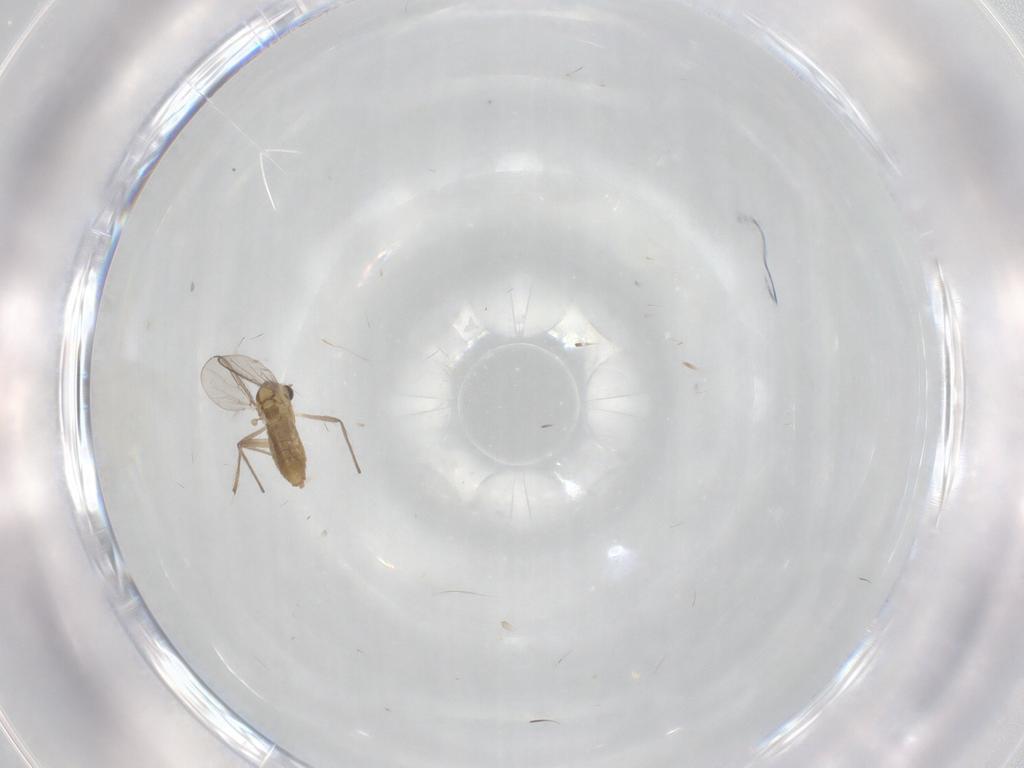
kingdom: Animalia
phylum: Arthropoda
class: Insecta
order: Diptera
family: Chironomidae
